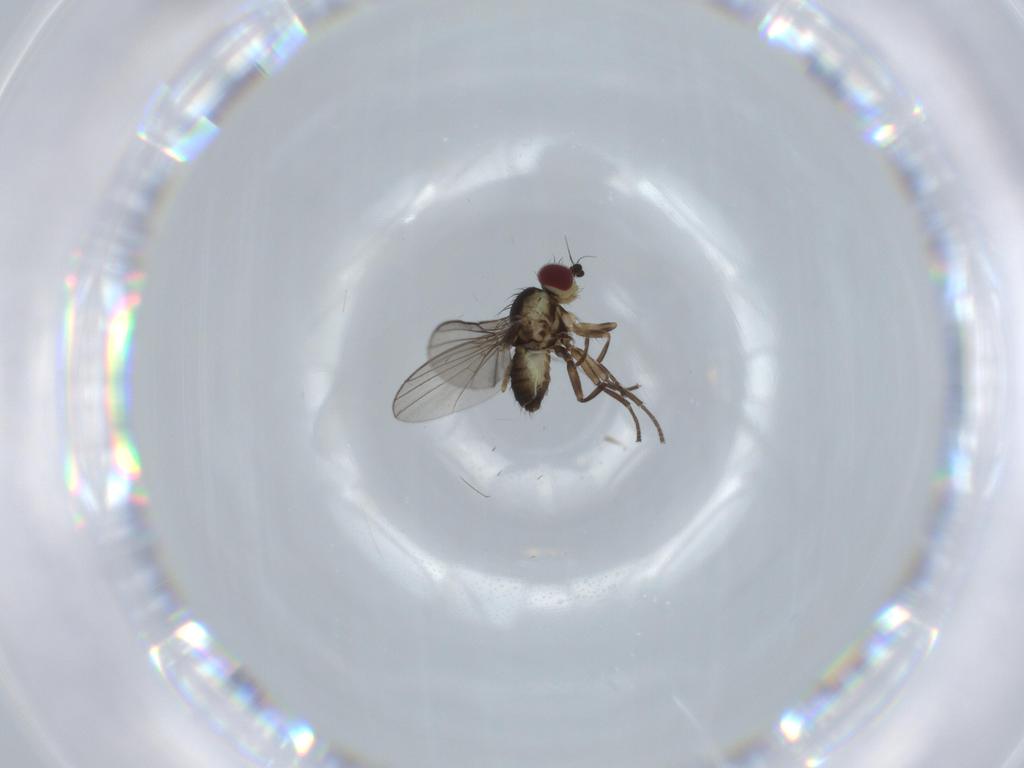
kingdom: Animalia
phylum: Arthropoda
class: Insecta
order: Diptera
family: Agromyzidae
